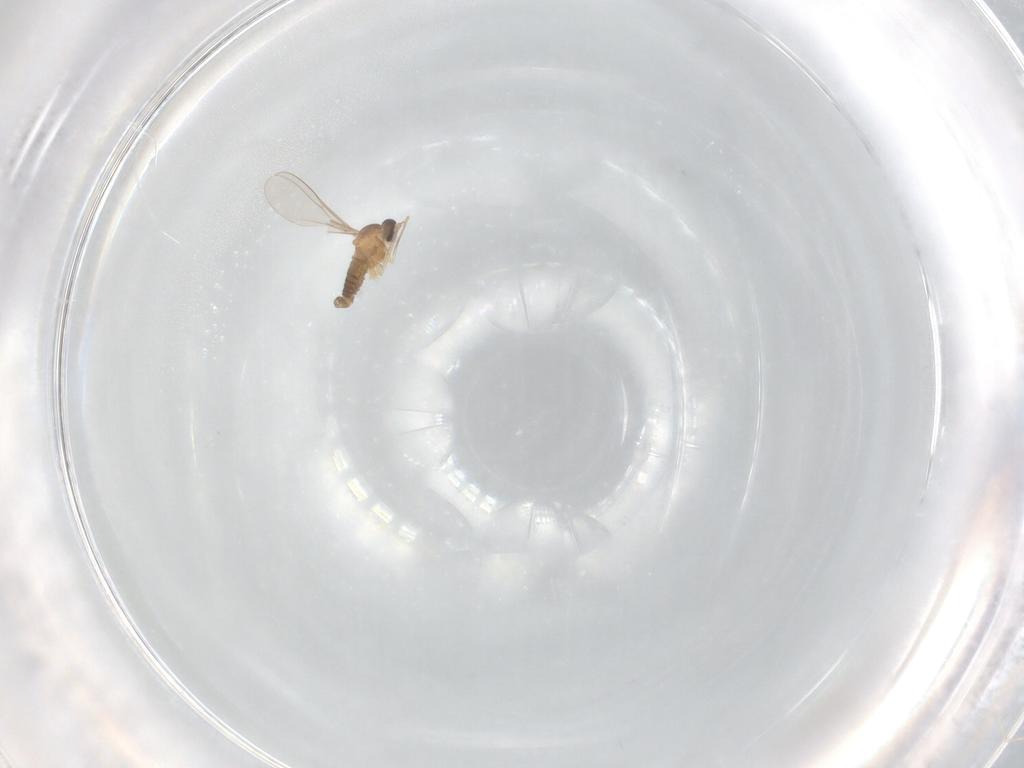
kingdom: Animalia
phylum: Arthropoda
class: Insecta
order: Diptera
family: Cecidomyiidae
